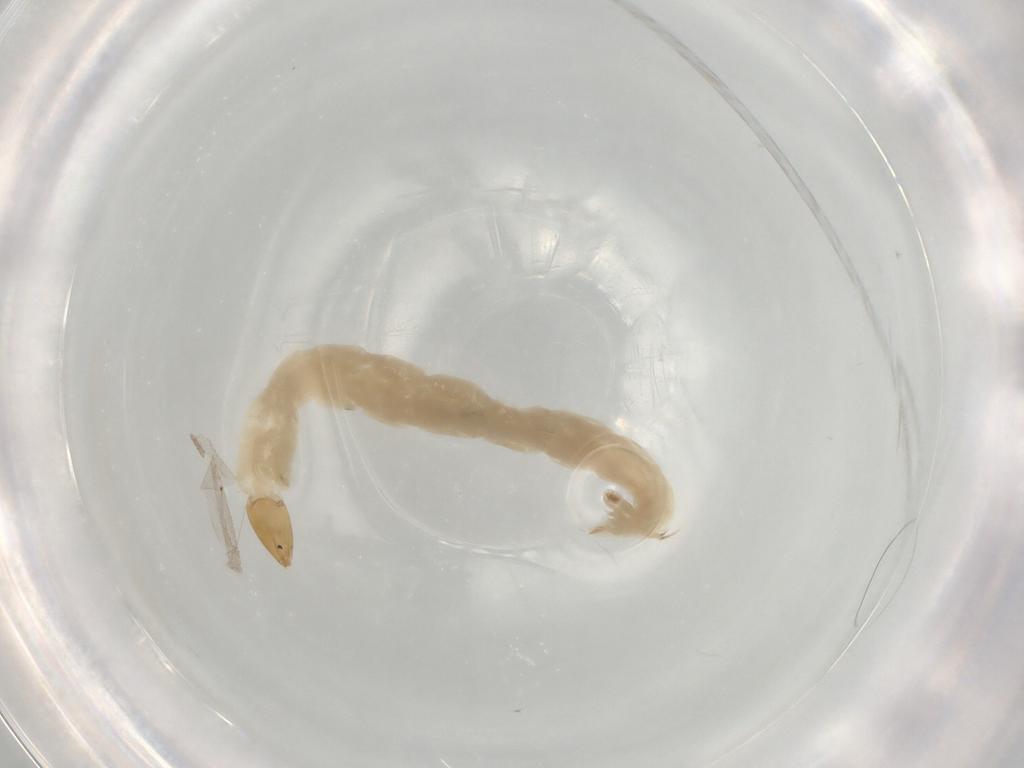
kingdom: Animalia
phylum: Arthropoda
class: Insecta
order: Diptera
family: Chironomidae
